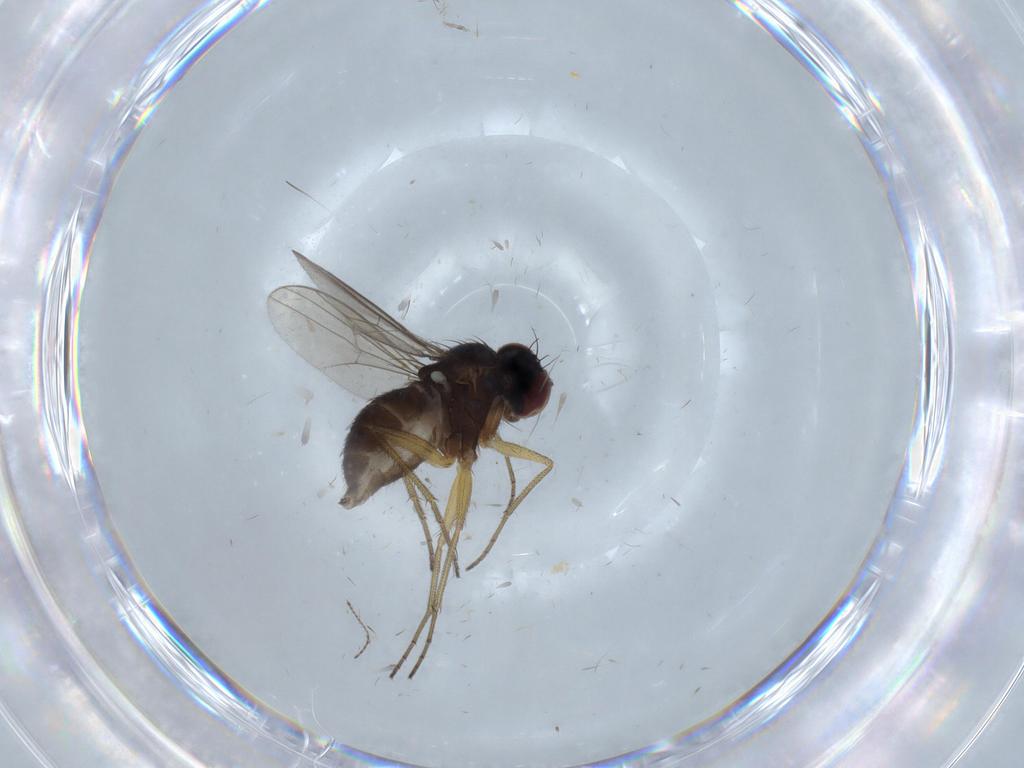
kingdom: Animalia
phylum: Arthropoda
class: Insecta
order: Diptera
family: Dolichopodidae
